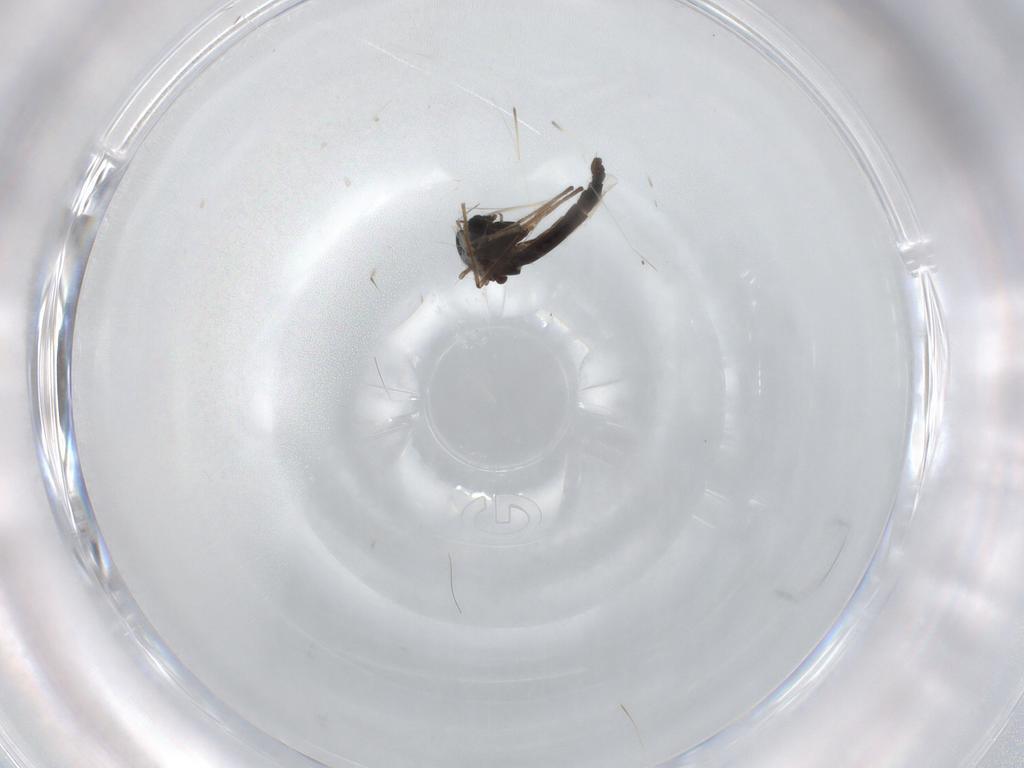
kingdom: Animalia
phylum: Arthropoda
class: Insecta
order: Diptera
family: Chironomidae
